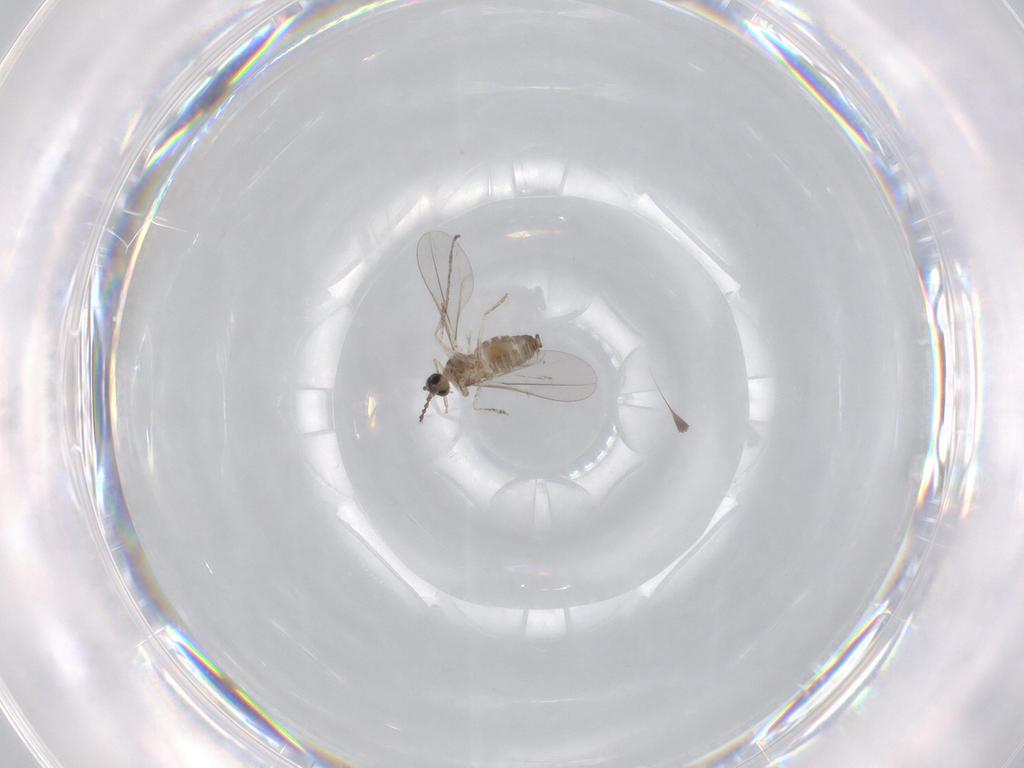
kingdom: Animalia
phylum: Arthropoda
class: Insecta
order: Diptera
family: Cecidomyiidae
